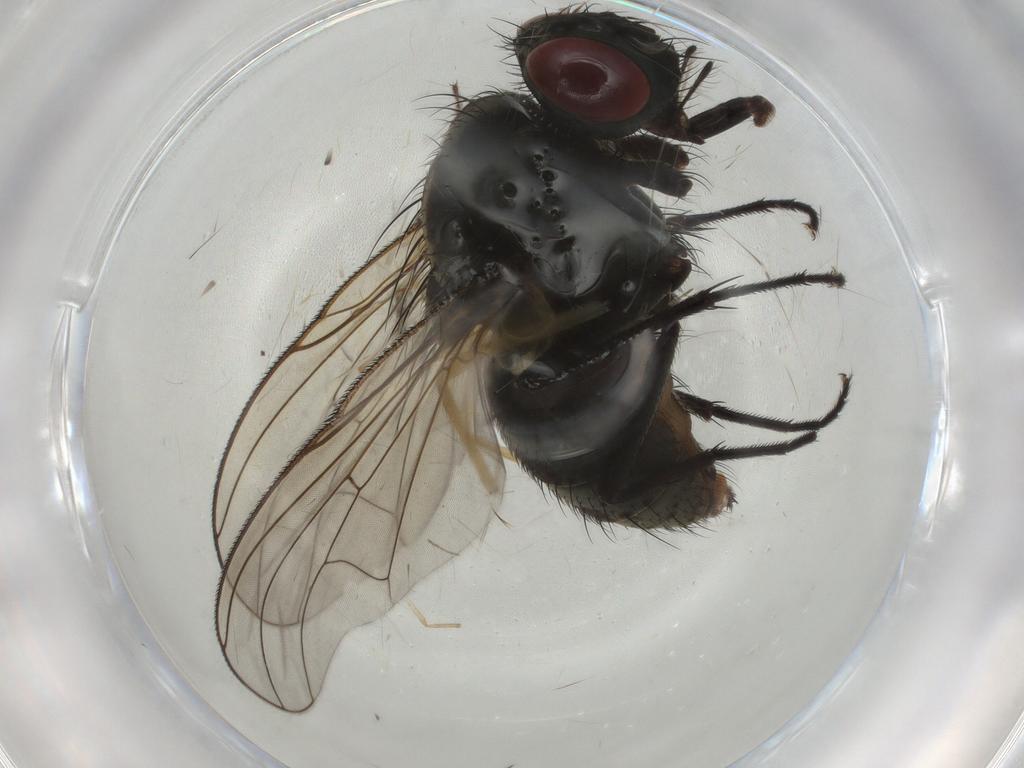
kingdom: Animalia
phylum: Arthropoda
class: Insecta
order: Diptera
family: Muscidae
